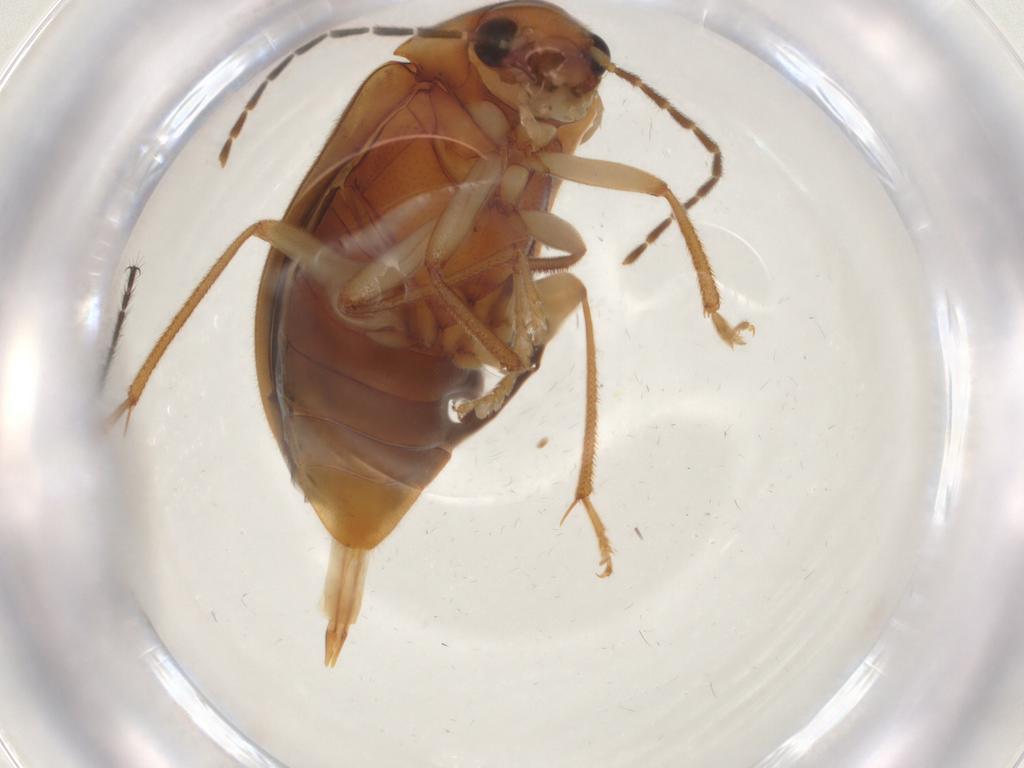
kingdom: Animalia
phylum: Arthropoda
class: Insecta
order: Coleoptera
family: Ptilodactylidae
